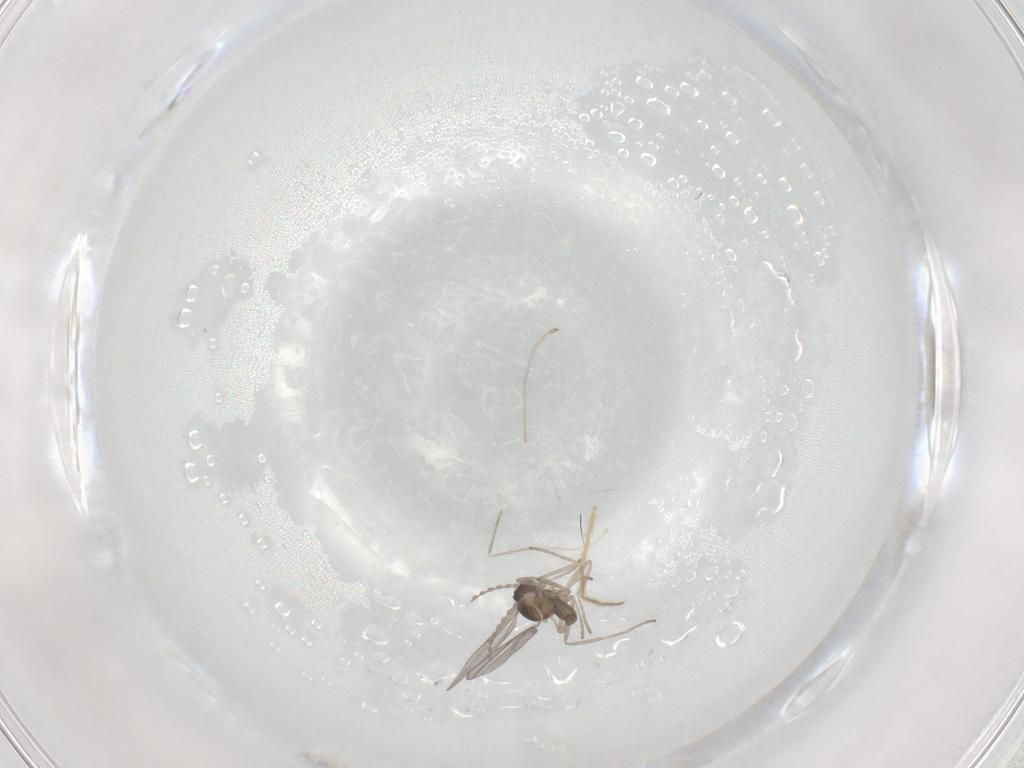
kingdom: Animalia
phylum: Arthropoda
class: Insecta
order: Diptera
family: Cecidomyiidae
